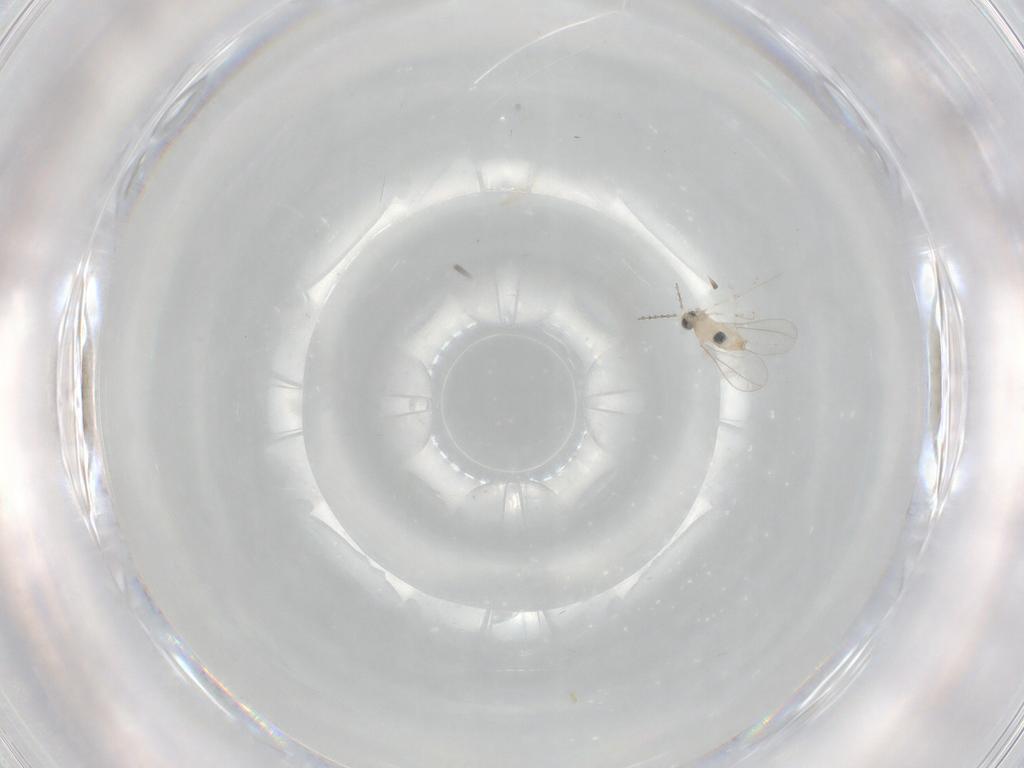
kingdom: Animalia
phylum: Arthropoda
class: Insecta
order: Diptera
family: Cecidomyiidae
